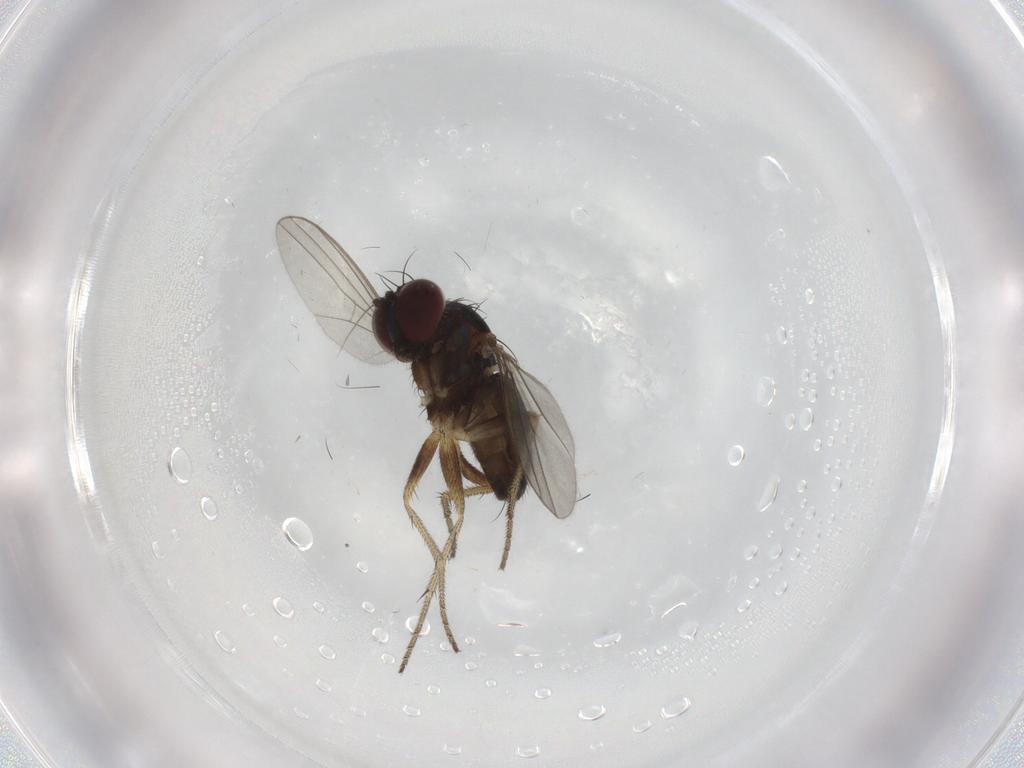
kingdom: Animalia
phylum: Arthropoda
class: Insecta
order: Diptera
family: Dolichopodidae
